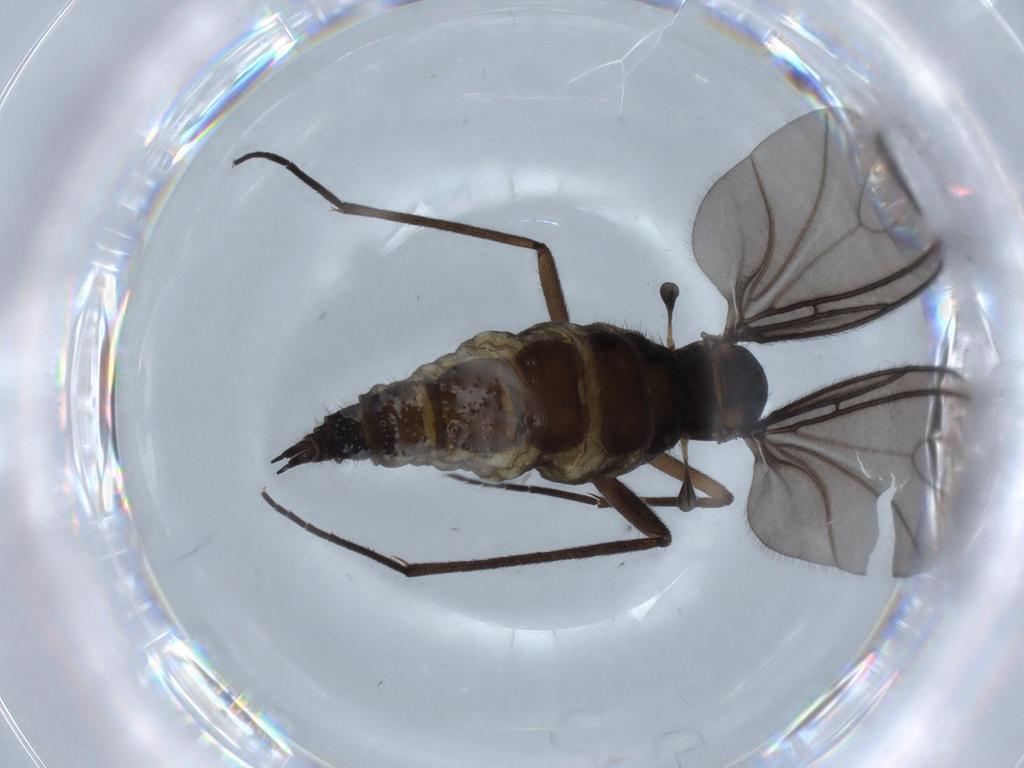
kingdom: Animalia
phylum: Arthropoda
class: Insecta
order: Diptera
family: Sciaridae
